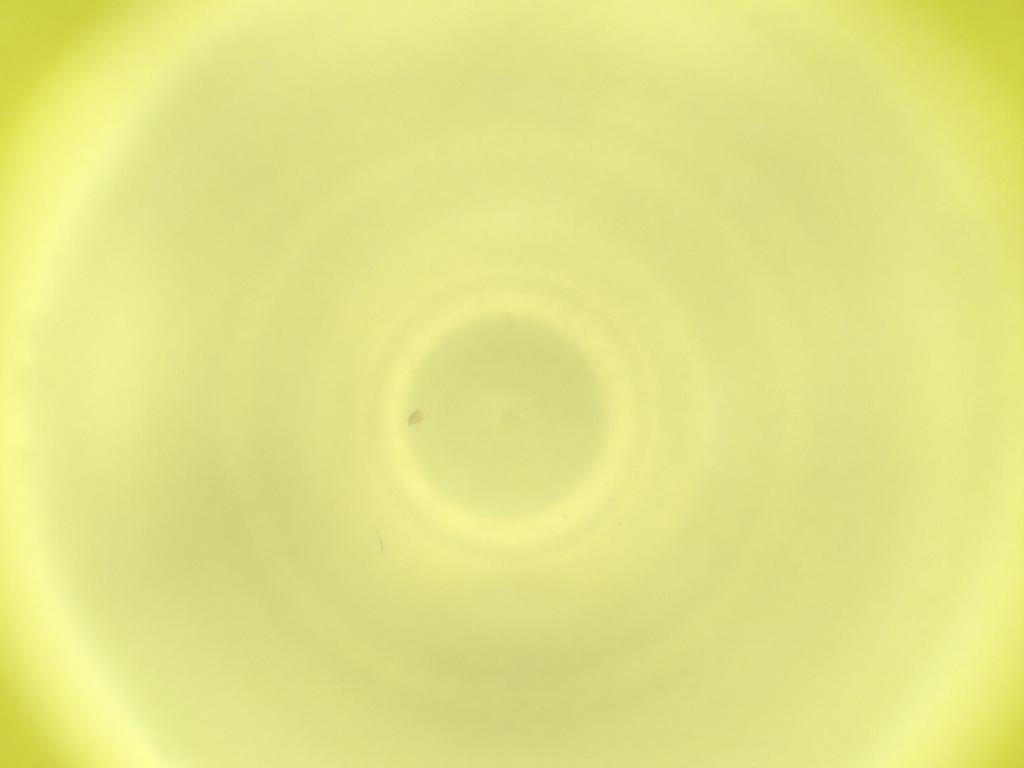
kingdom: Animalia
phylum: Arthropoda
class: Insecta
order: Diptera
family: Cecidomyiidae
